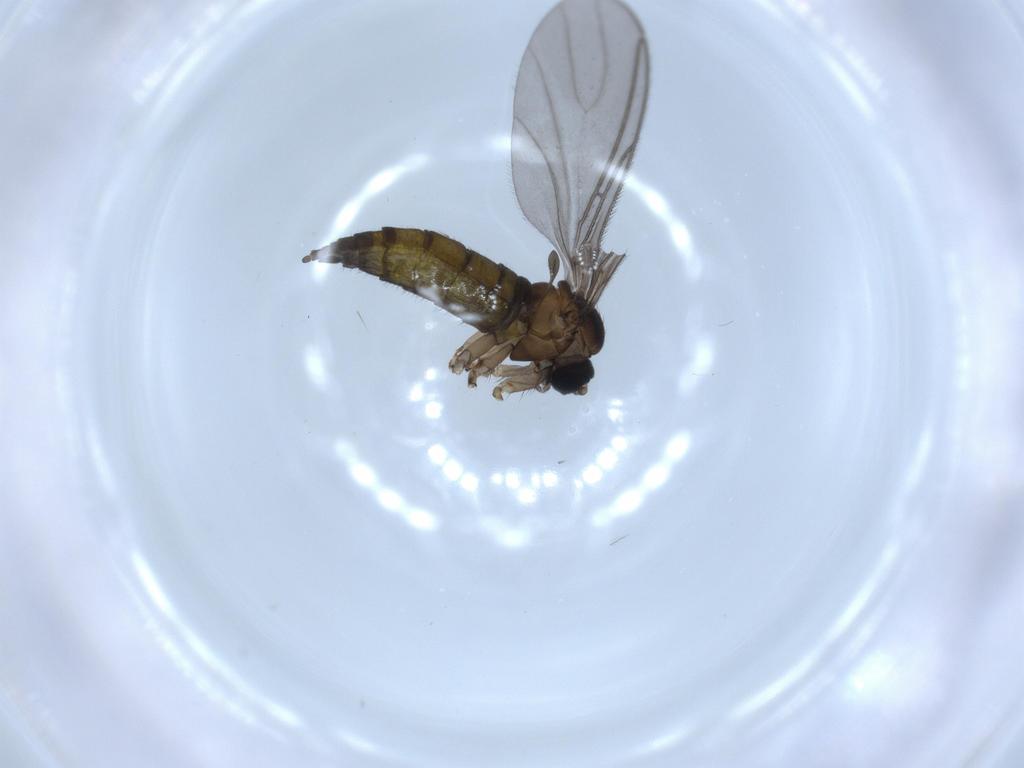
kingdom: Animalia
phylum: Arthropoda
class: Insecta
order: Diptera
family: Sciaridae
